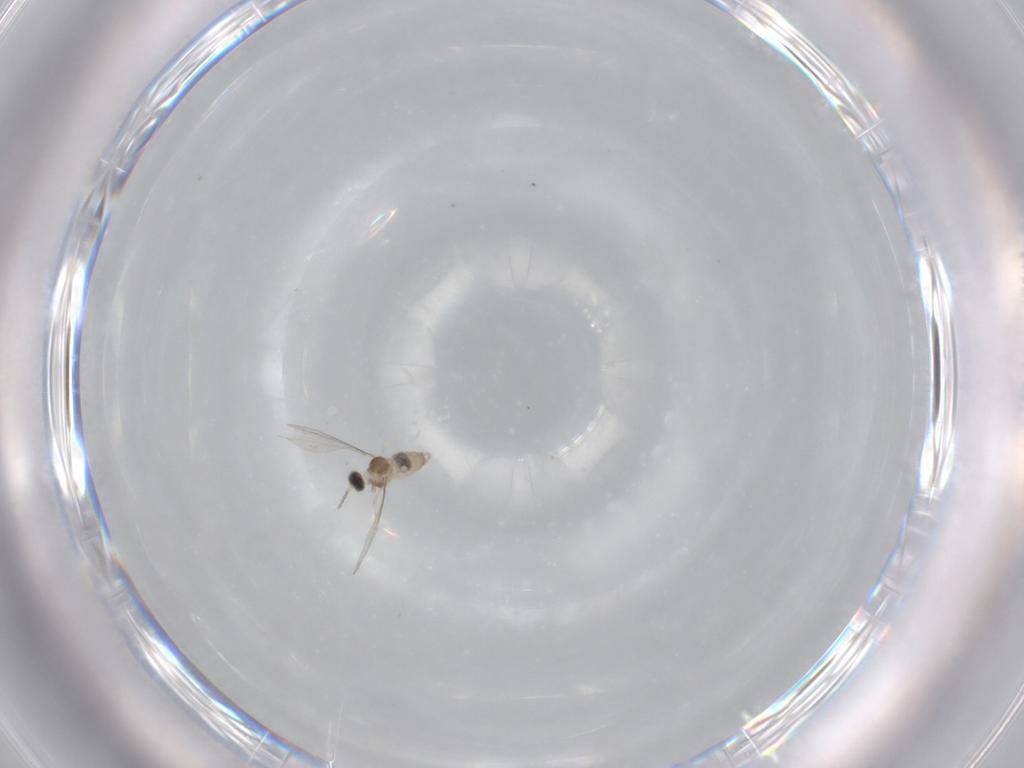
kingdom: Animalia
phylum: Arthropoda
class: Insecta
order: Diptera
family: Cecidomyiidae
